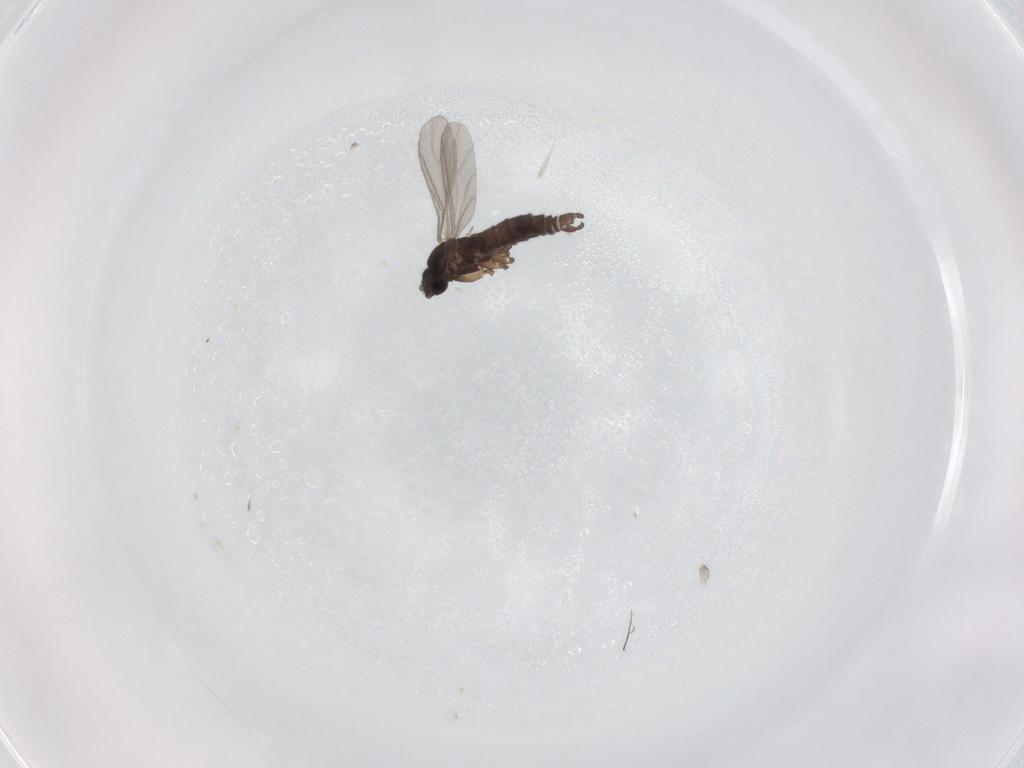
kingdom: Animalia
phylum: Arthropoda
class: Insecta
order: Diptera
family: Sciaridae
